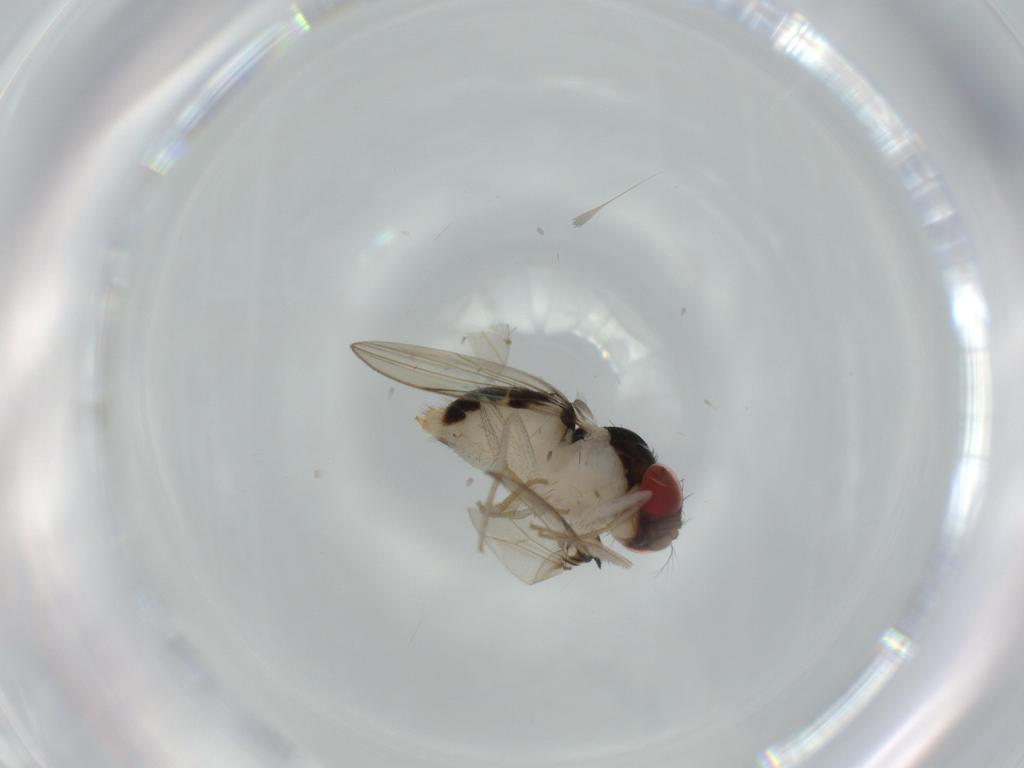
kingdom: Animalia
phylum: Arthropoda
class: Insecta
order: Diptera
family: Drosophilidae
